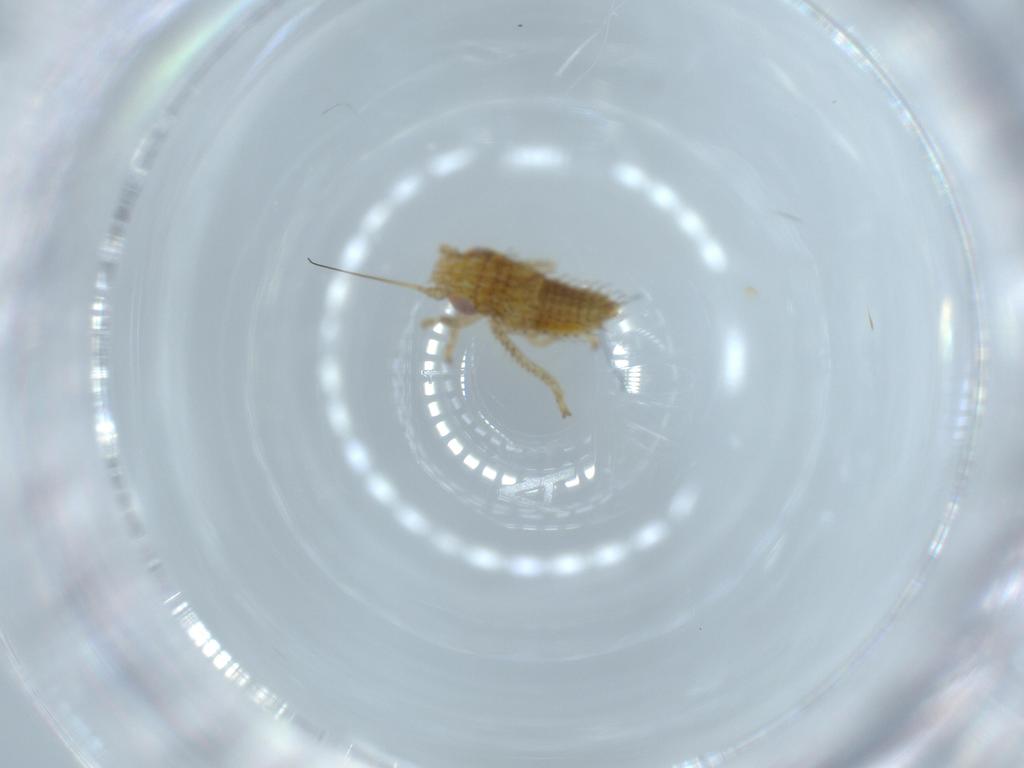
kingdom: Animalia
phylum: Arthropoda
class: Insecta
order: Hemiptera
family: Cicadellidae
